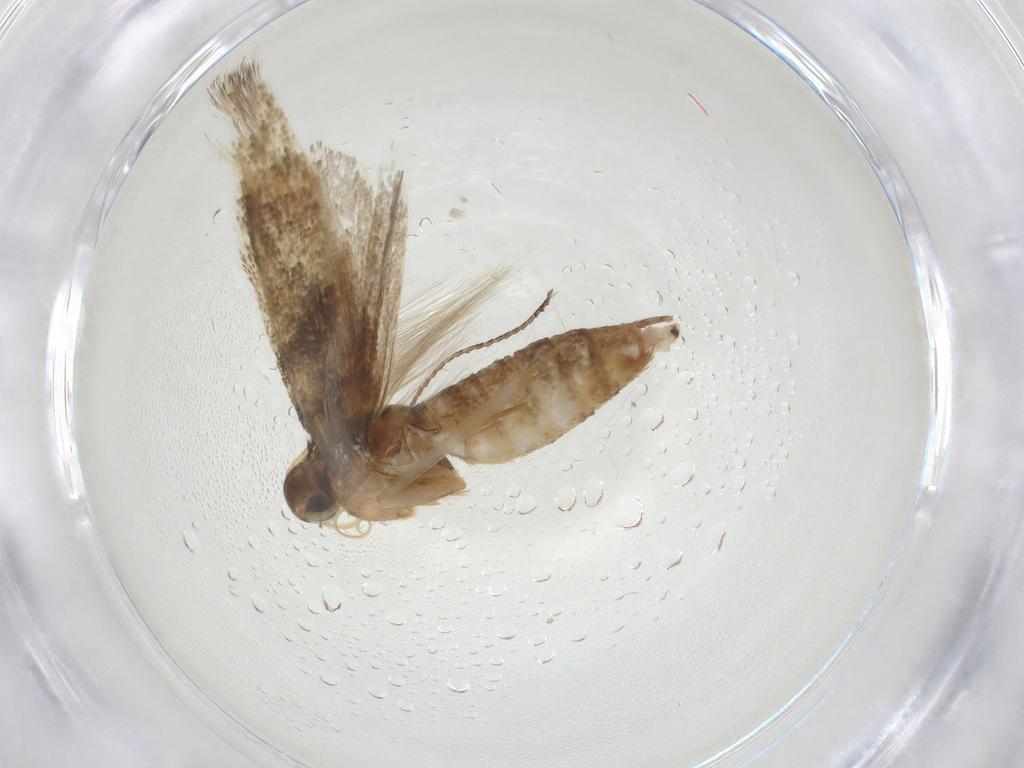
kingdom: Animalia
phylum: Arthropoda
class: Insecta
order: Lepidoptera
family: Gelechiidae
